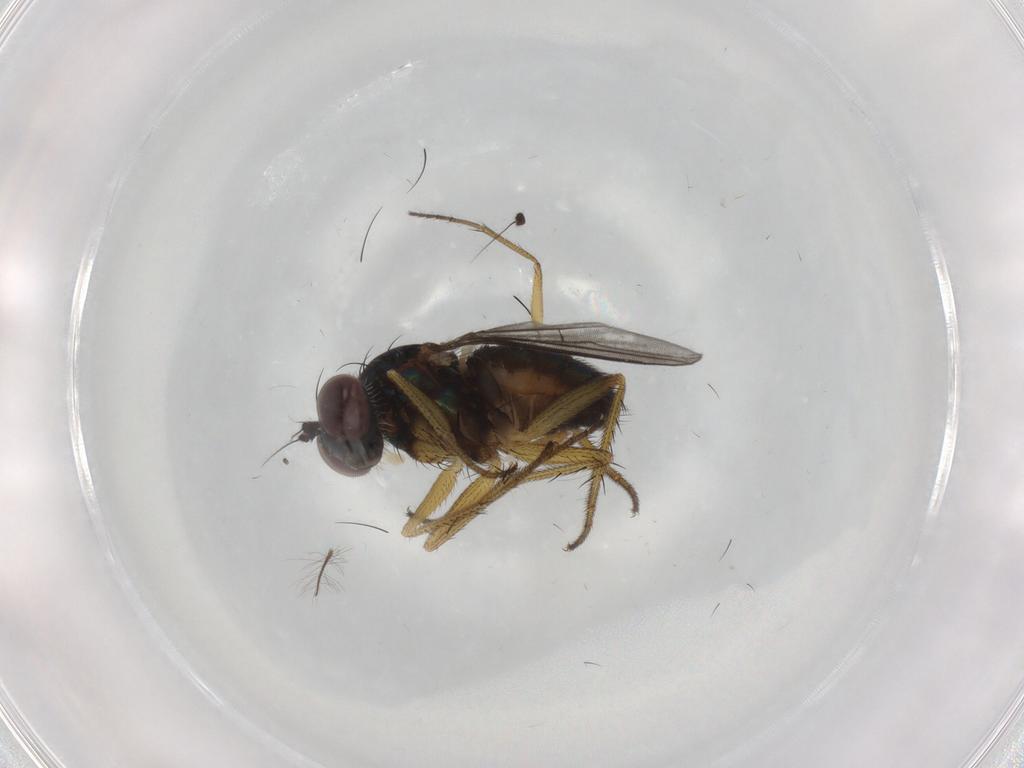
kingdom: Animalia
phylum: Arthropoda
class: Insecta
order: Diptera
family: Dolichopodidae
